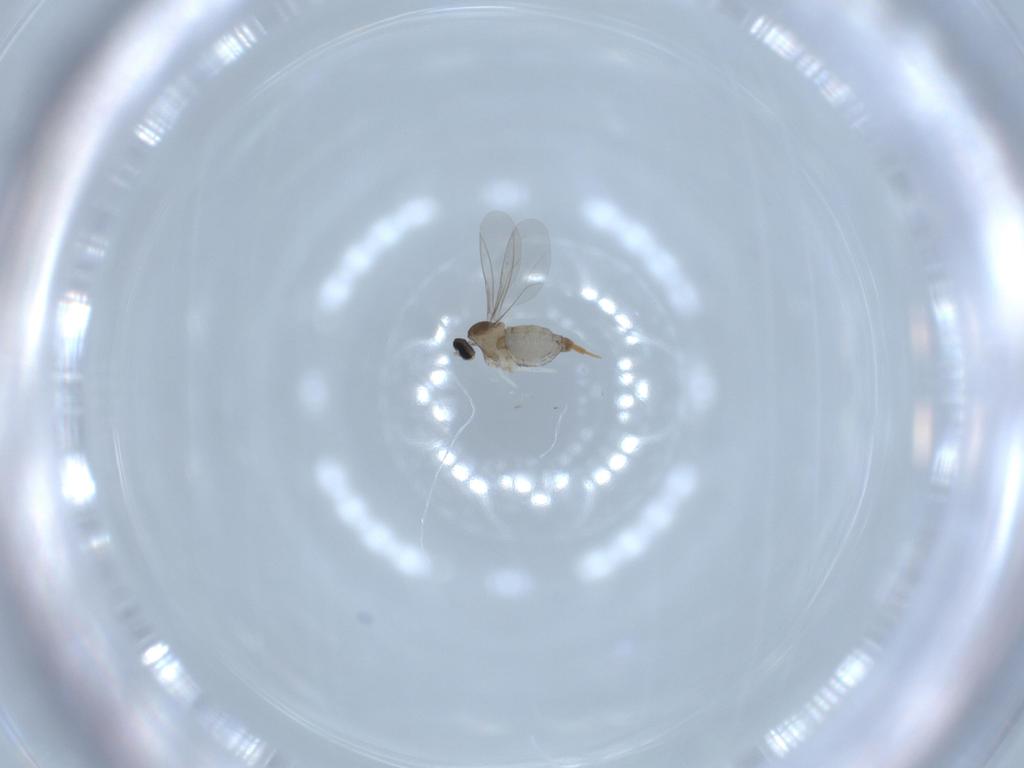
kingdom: Animalia
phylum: Arthropoda
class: Insecta
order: Diptera
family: Cecidomyiidae
